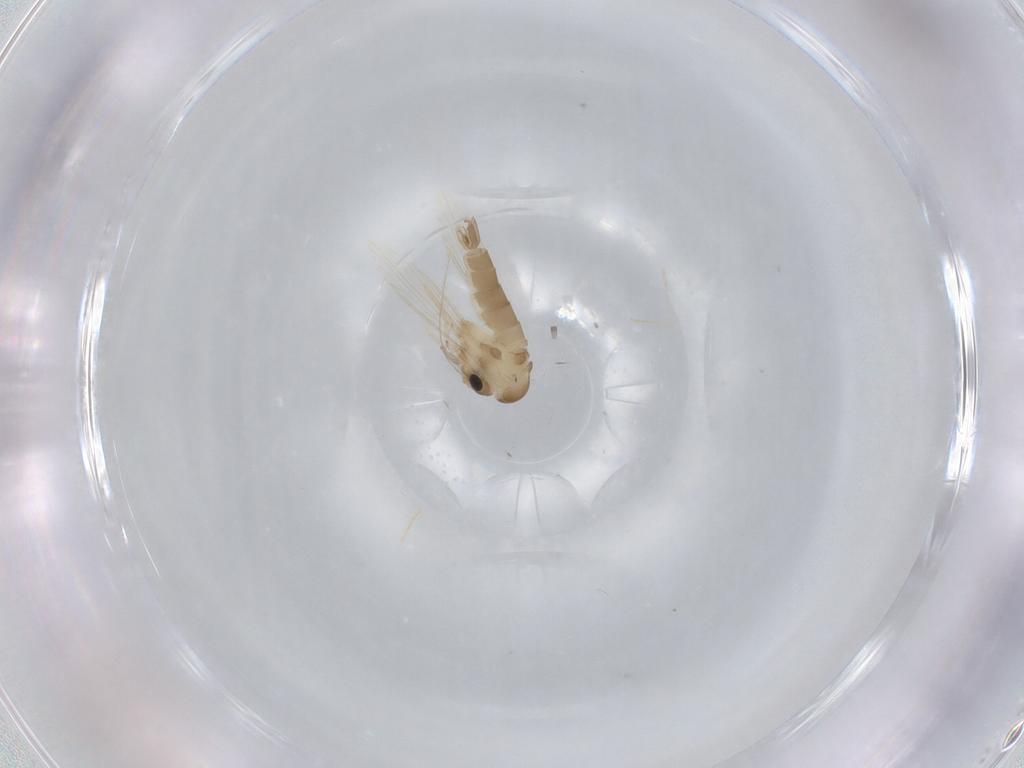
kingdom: Animalia
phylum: Arthropoda
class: Insecta
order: Diptera
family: Psychodidae
